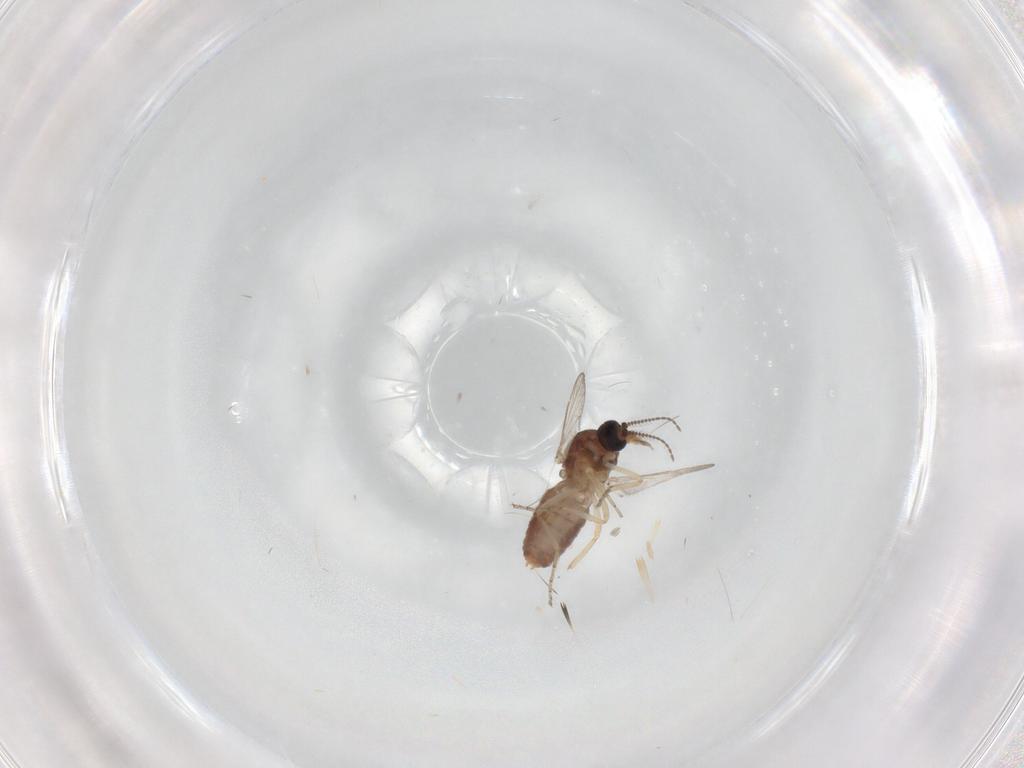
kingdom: Animalia
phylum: Arthropoda
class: Insecta
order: Diptera
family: Ceratopogonidae
